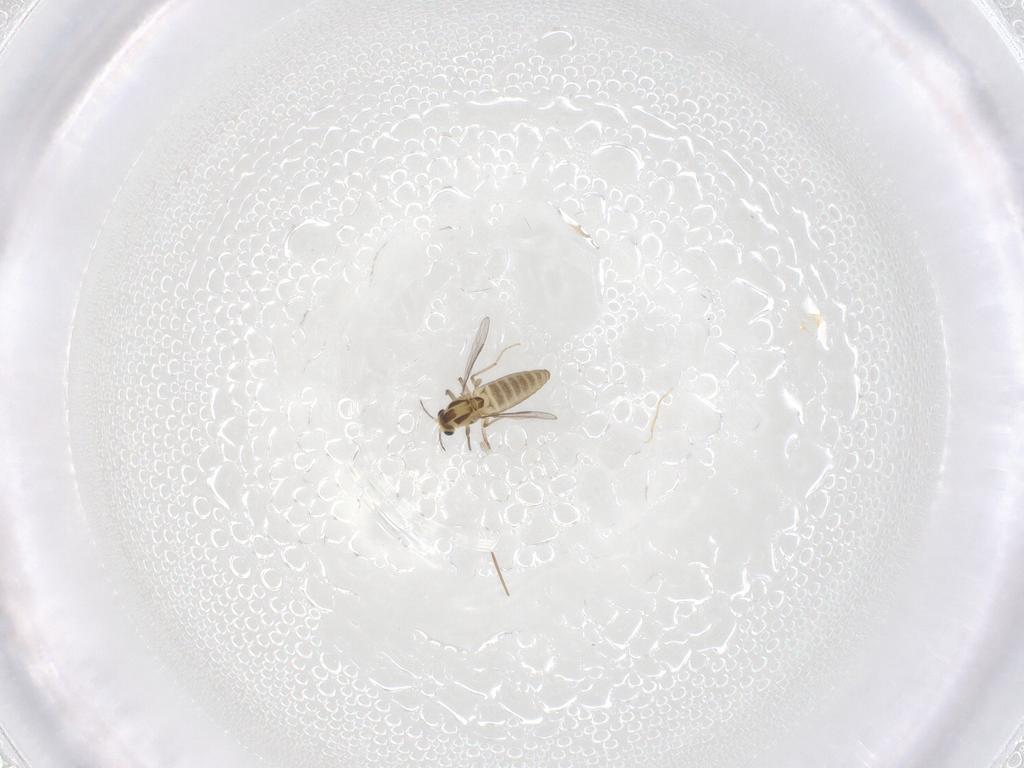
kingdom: Animalia
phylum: Arthropoda
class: Insecta
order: Diptera
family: Chironomidae
